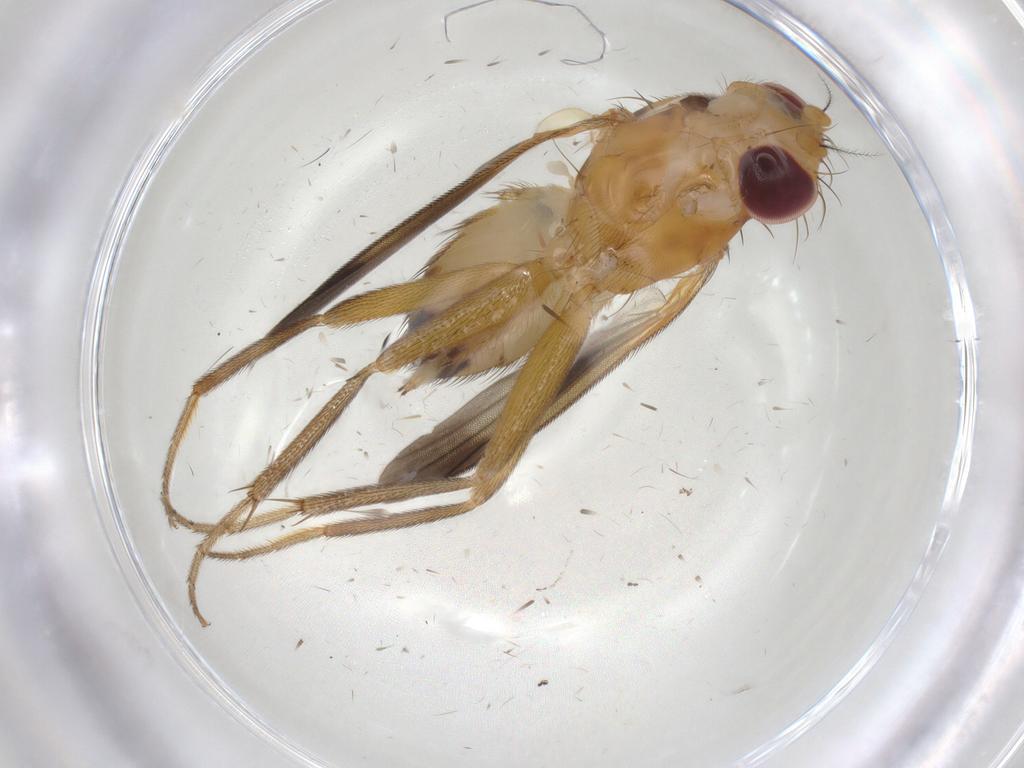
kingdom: Animalia
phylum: Arthropoda
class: Insecta
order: Diptera
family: Clusiidae
